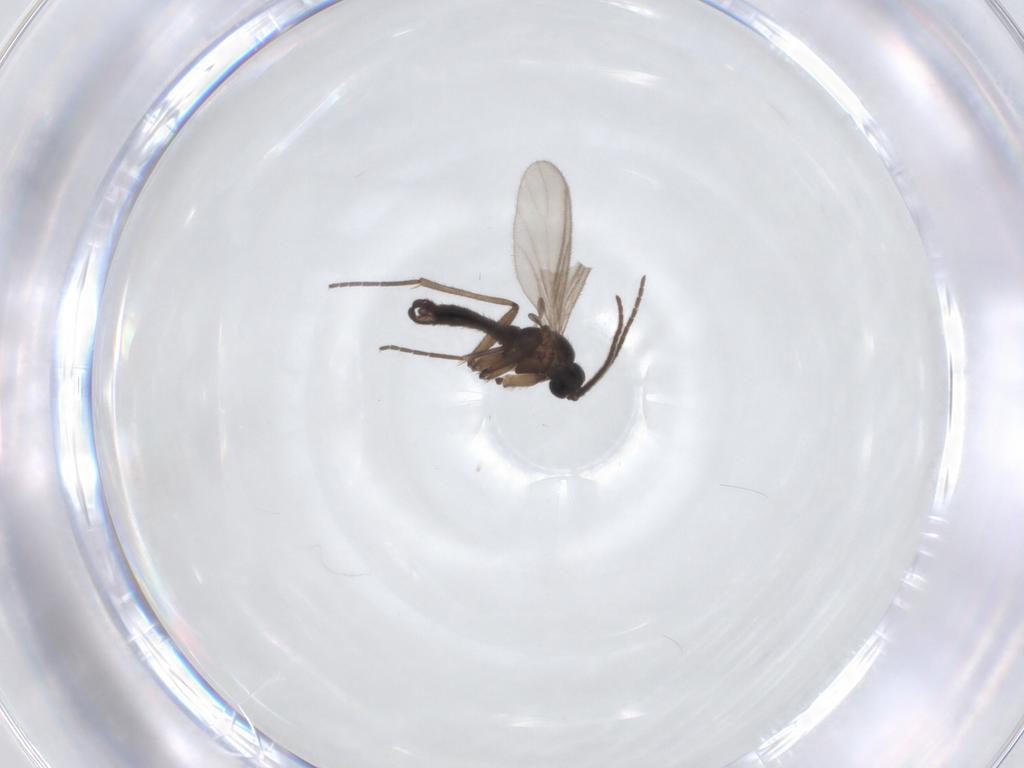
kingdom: Animalia
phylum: Arthropoda
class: Insecta
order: Diptera
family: Sciaridae
